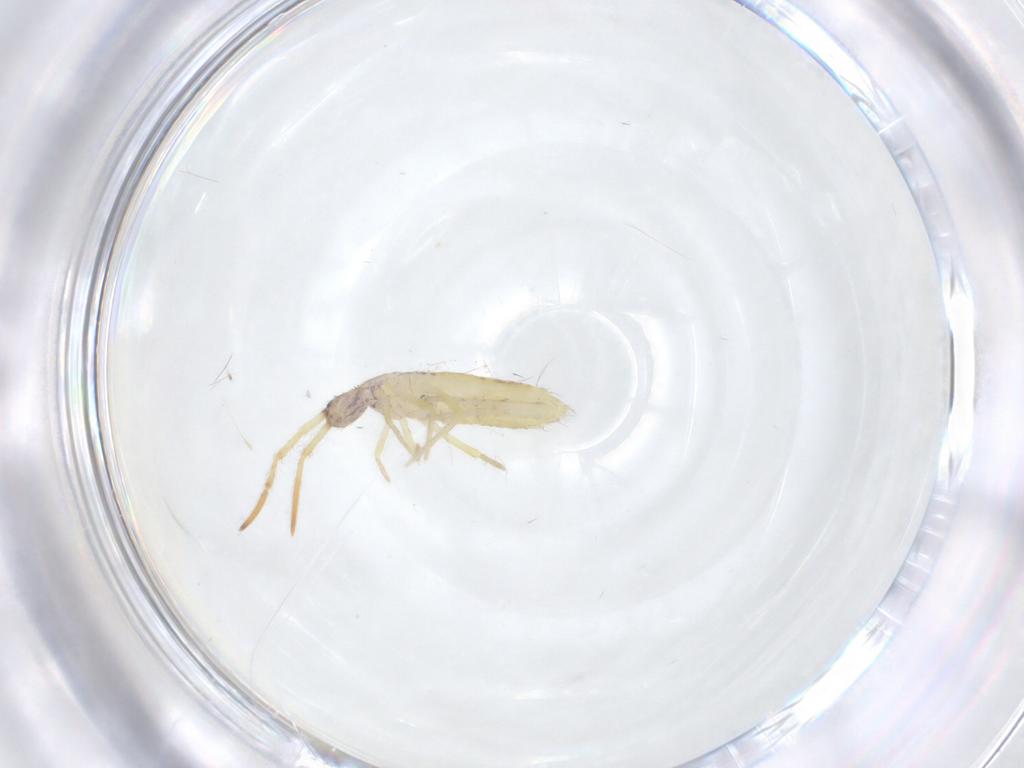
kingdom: Animalia
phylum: Arthropoda
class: Collembola
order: Entomobryomorpha
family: Entomobryidae
